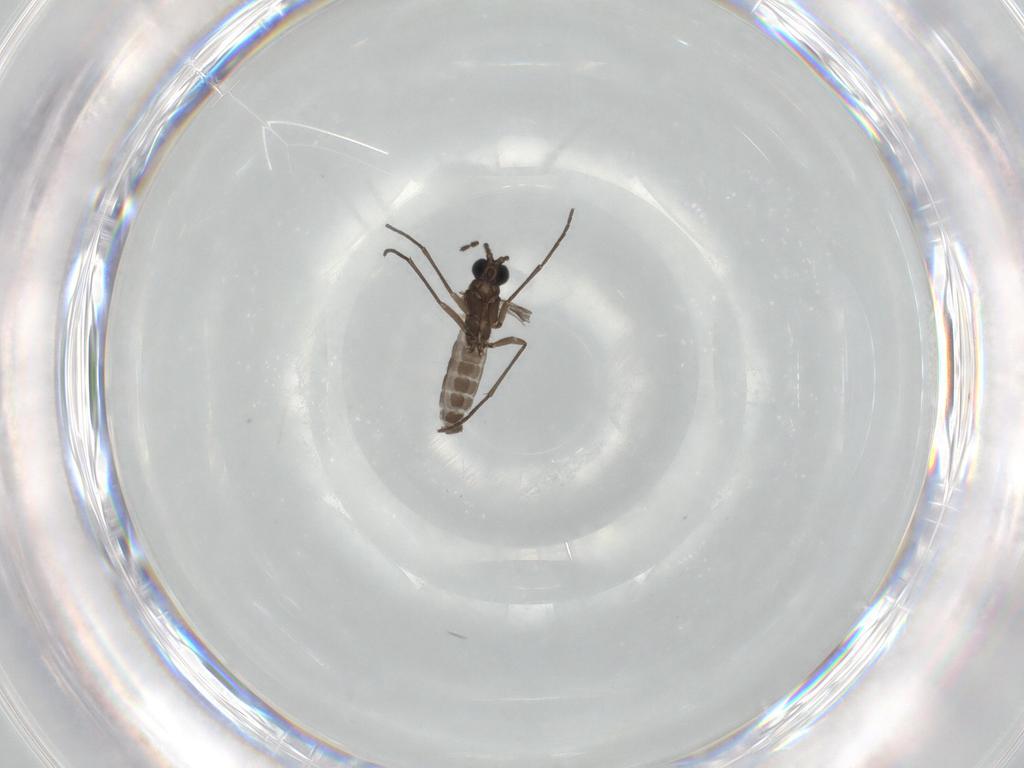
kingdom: Animalia
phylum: Arthropoda
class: Insecta
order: Diptera
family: Sciaridae
